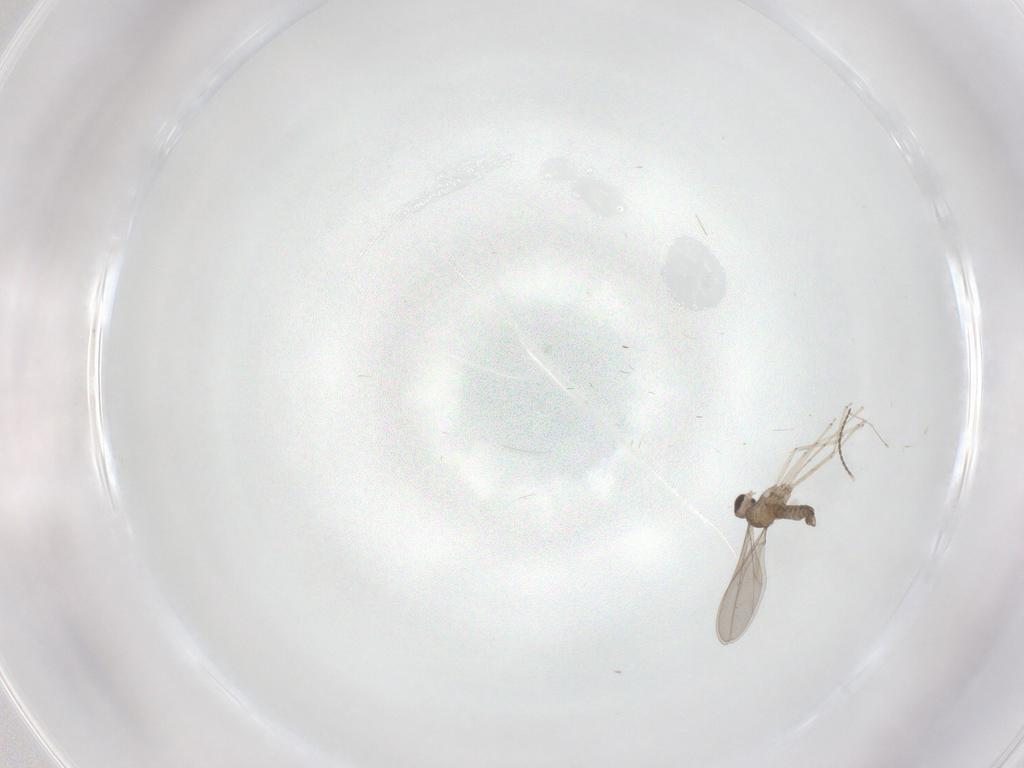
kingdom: Animalia
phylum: Arthropoda
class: Insecta
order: Diptera
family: Cecidomyiidae
